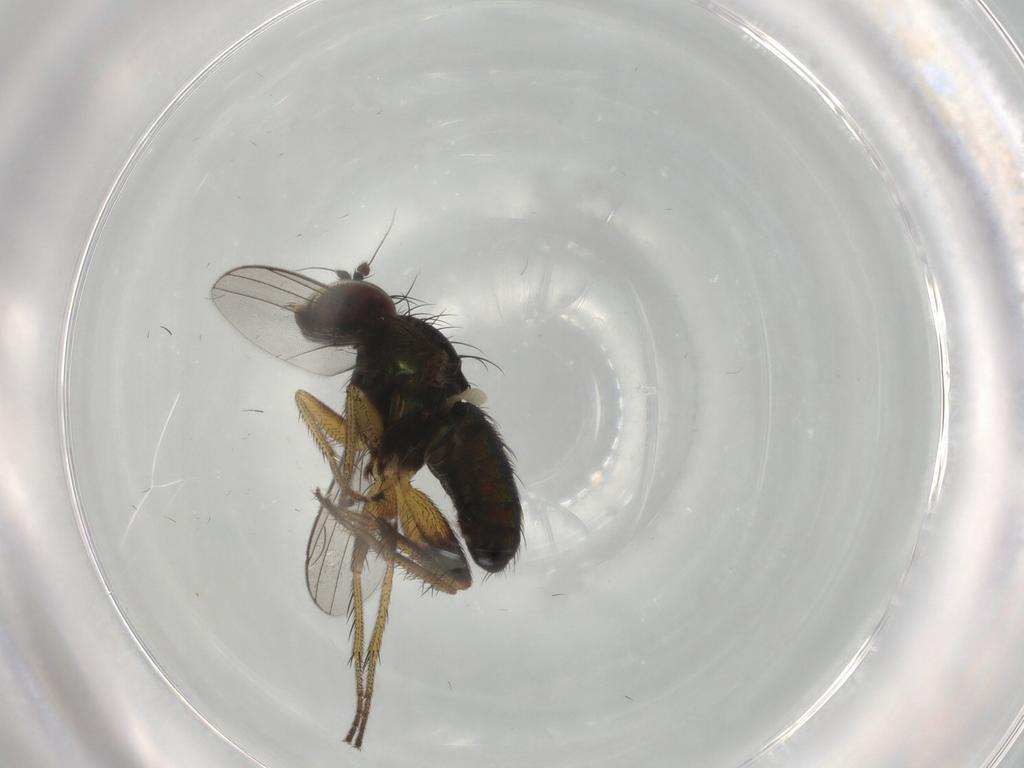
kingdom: Animalia
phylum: Arthropoda
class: Insecta
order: Diptera
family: Dolichopodidae
